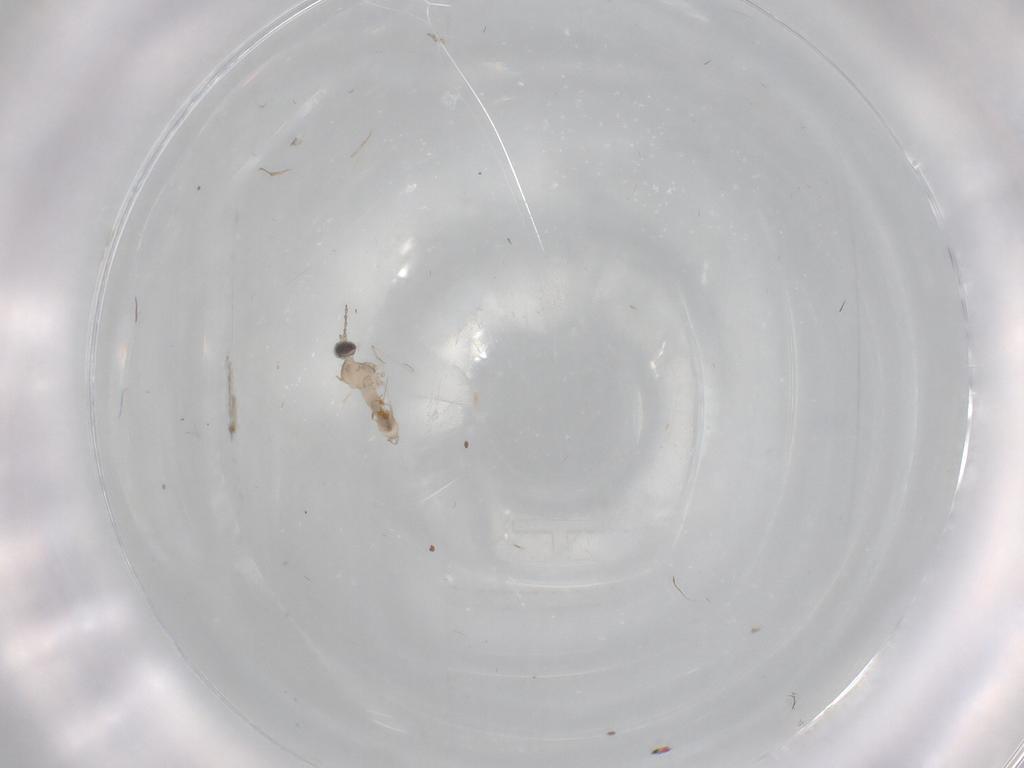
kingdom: Animalia
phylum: Arthropoda
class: Insecta
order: Diptera
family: Cecidomyiidae
